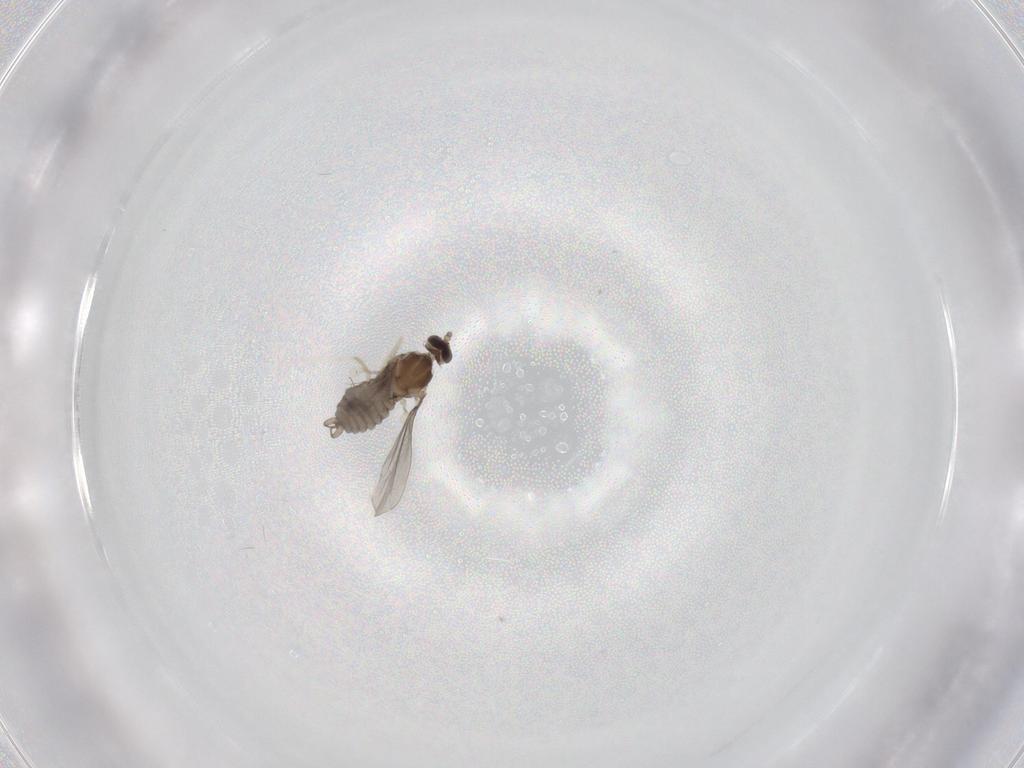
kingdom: Animalia
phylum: Arthropoda
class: Insecta
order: Diptera
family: Cecidomyiidae
